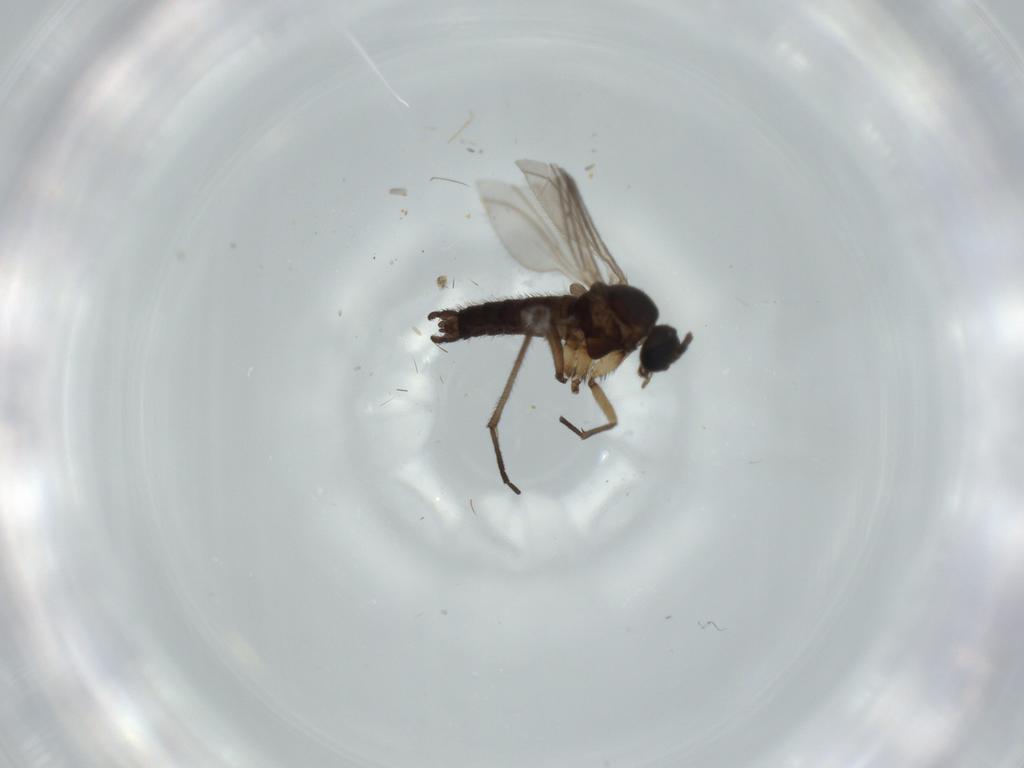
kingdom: Animalia
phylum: Arthropoda
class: Insecta
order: Diptera
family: Sciaridae
